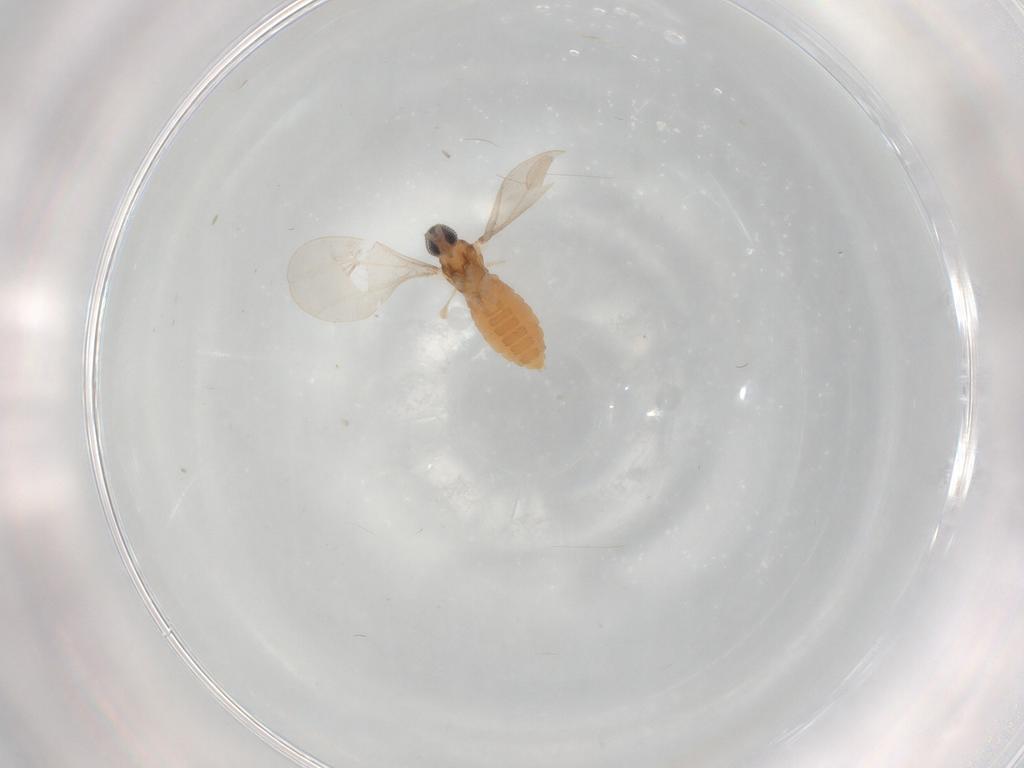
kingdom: Animalia
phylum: Arthropoda
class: Insecta
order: Diptera
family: Cecidomyiidae
